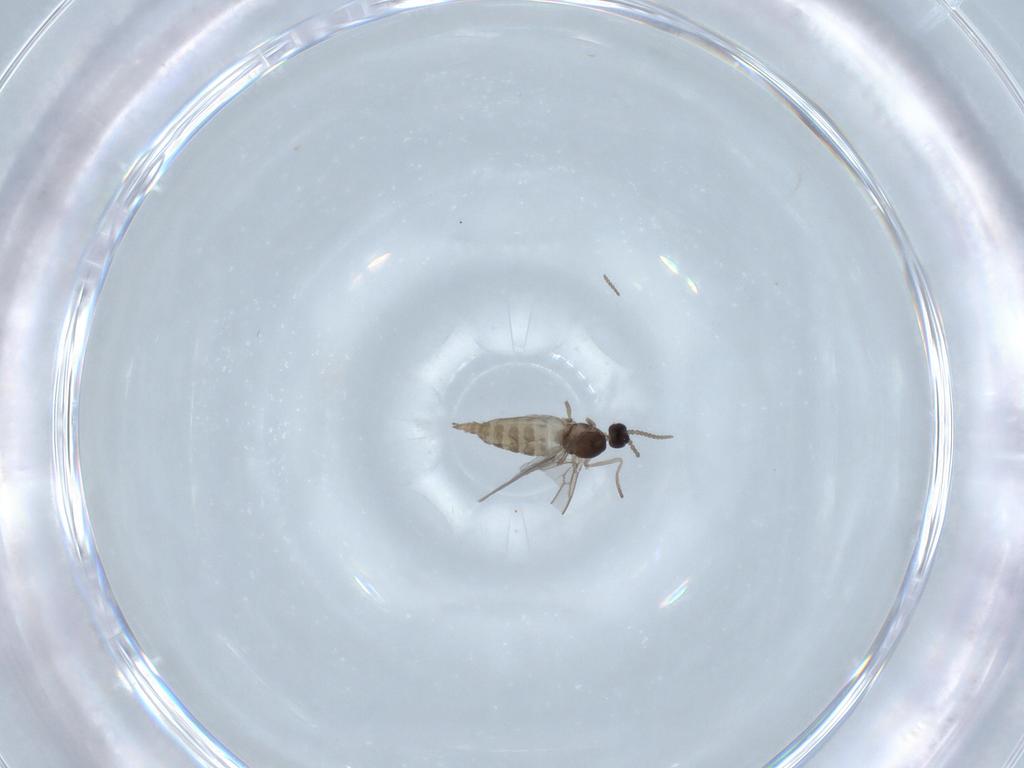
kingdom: Animalia
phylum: Arthropoda
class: Insecta
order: Diptera
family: Cecidomyiidae
